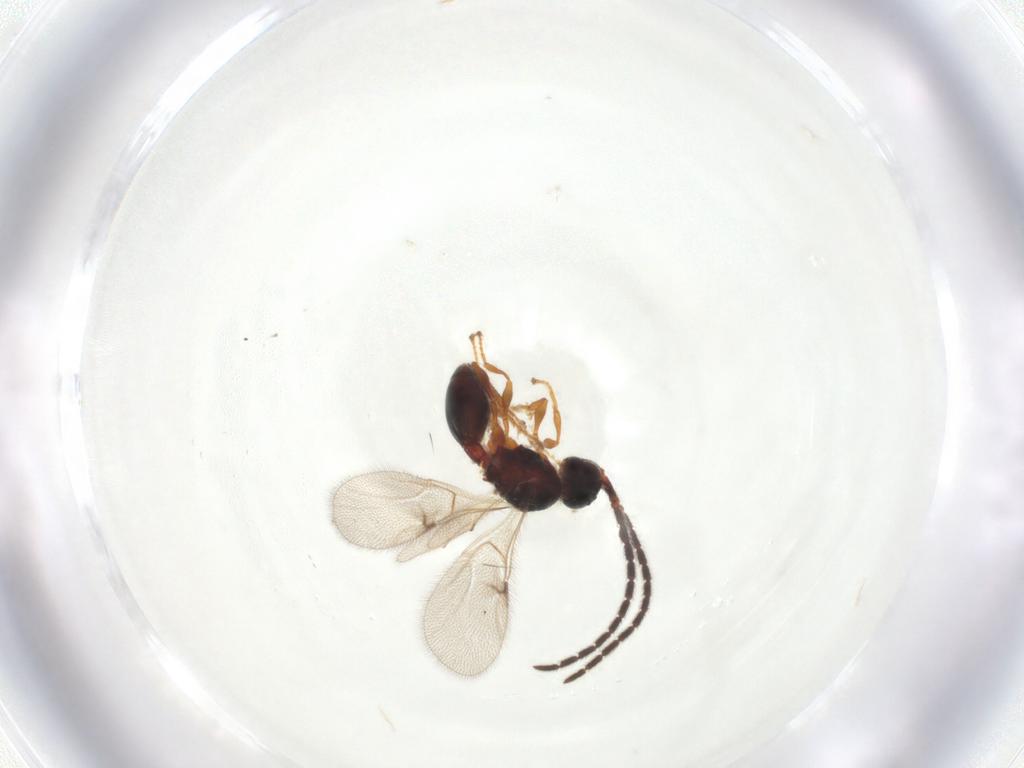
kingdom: Animalia
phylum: Arthropoda
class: Insecta
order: Hymenoptera
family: Diapriidae
